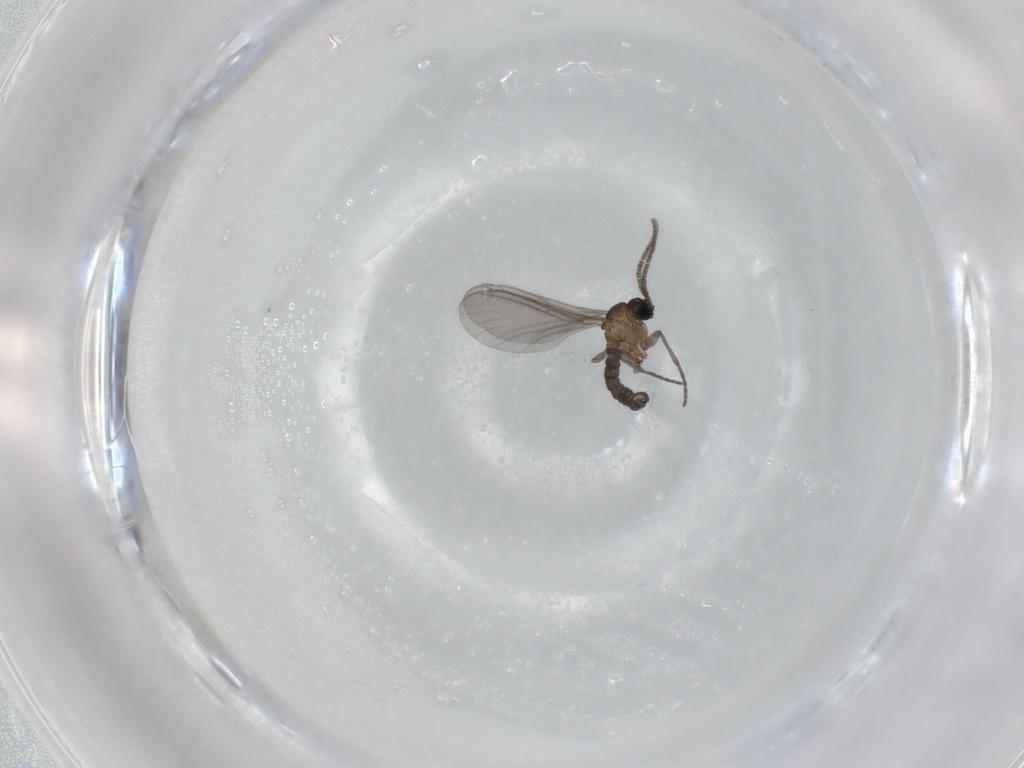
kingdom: Animalia
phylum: Arthropoda
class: Insecta
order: Diptera
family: Sciaridae
